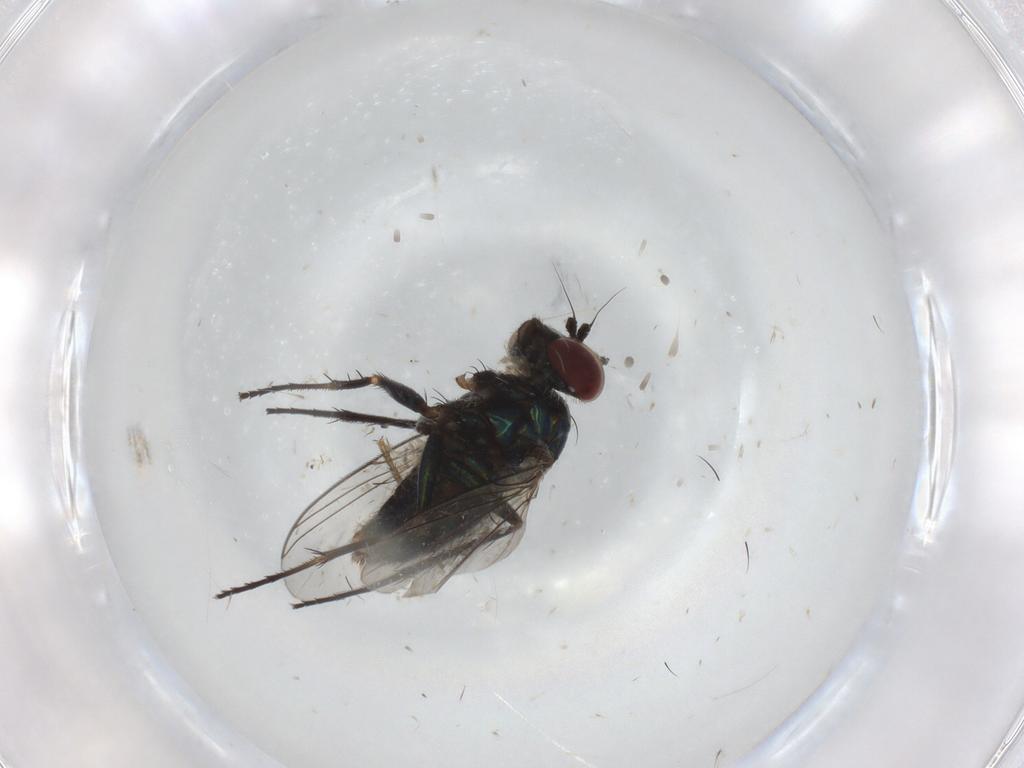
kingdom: Animalia
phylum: Arthropoda
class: Insecta
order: Diptera
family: Dolichopodidae
